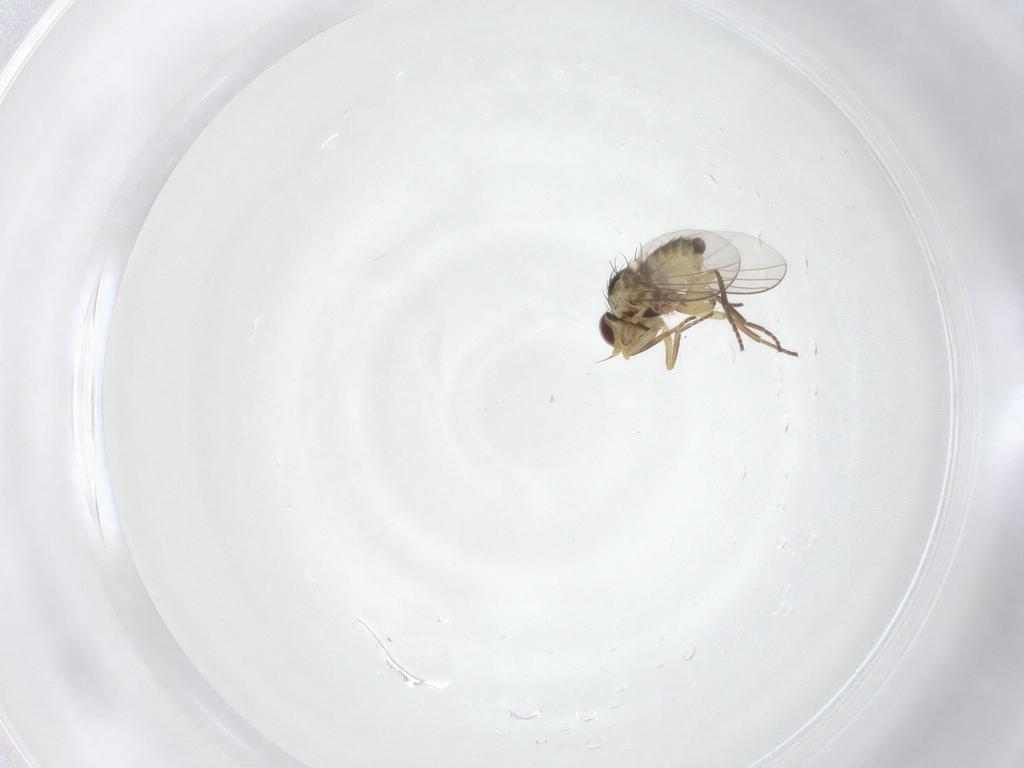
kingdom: Animalia
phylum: Arthropoda
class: Insecta
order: Diptera
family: Agromyzidae
